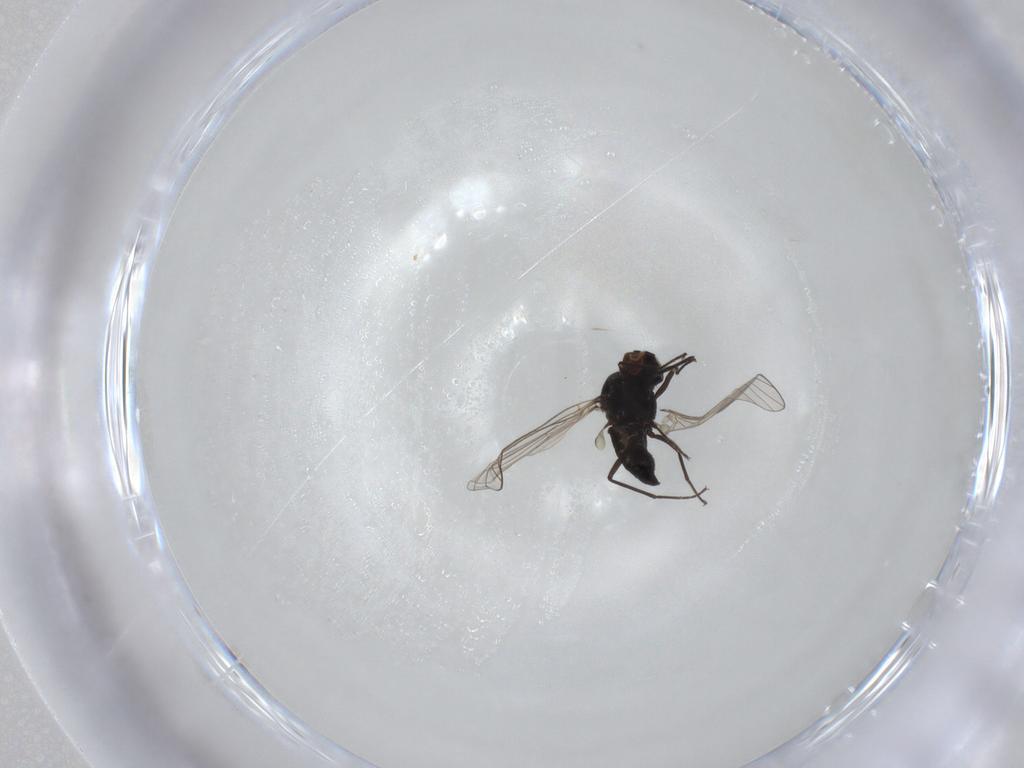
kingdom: Animalia
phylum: Arthropoda
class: Insecta
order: Diptera
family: Bombyliidae
